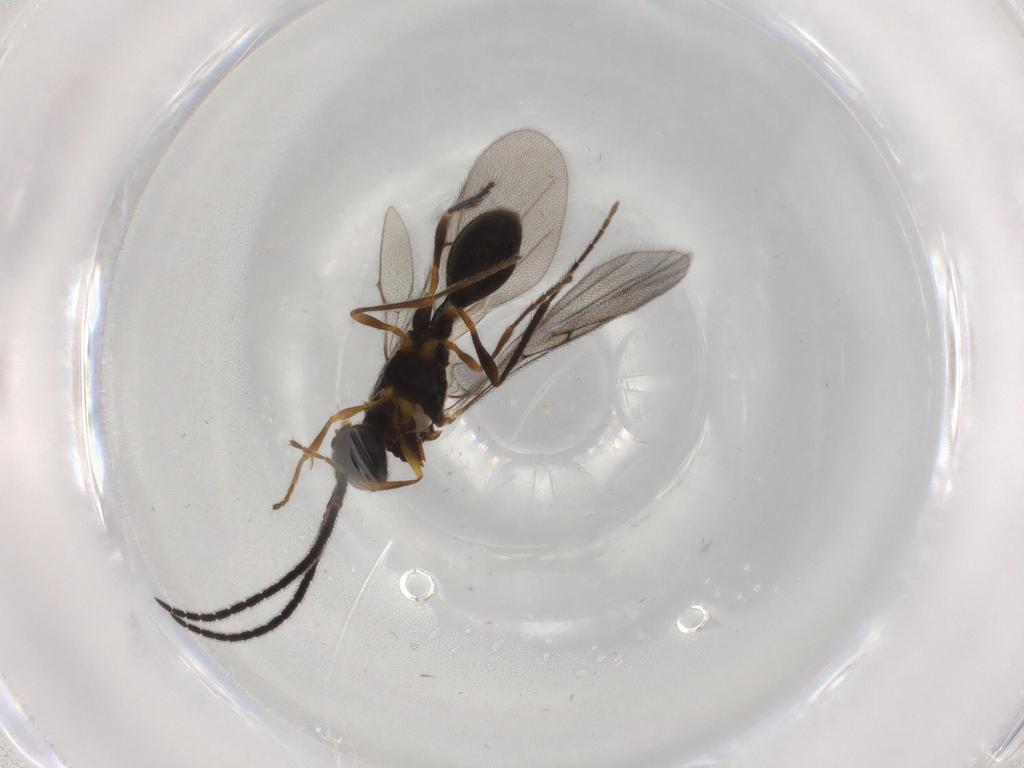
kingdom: Animalia
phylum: Arthropoda
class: Insecta
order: Hymenoptera
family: Diapriidae
